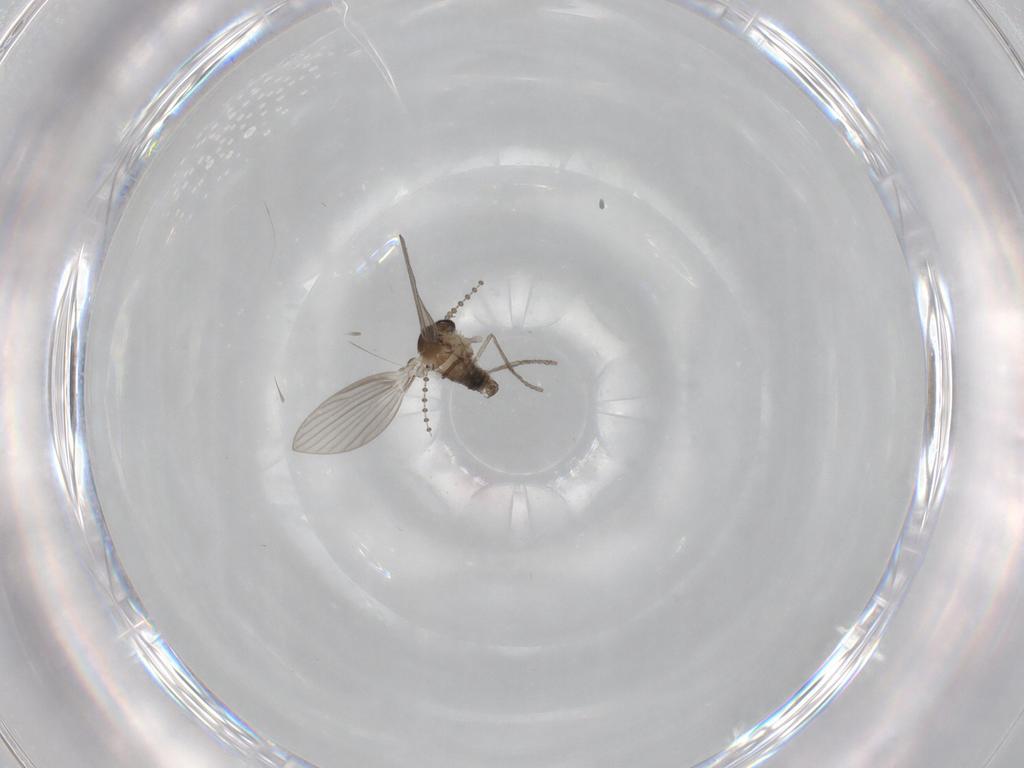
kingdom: Animalia
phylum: Arthropoda
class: Insecta
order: Diptera
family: Psychodidae
